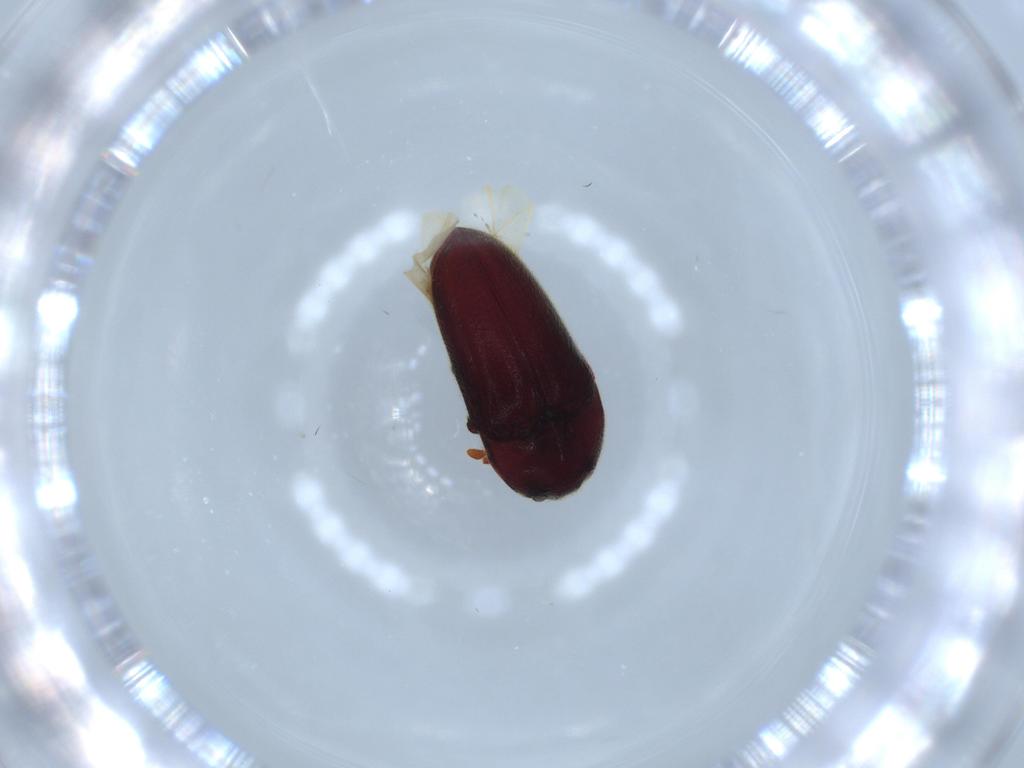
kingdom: Animalia
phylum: Arthropoda
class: Insecta
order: Coleoptera
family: Throscidae
